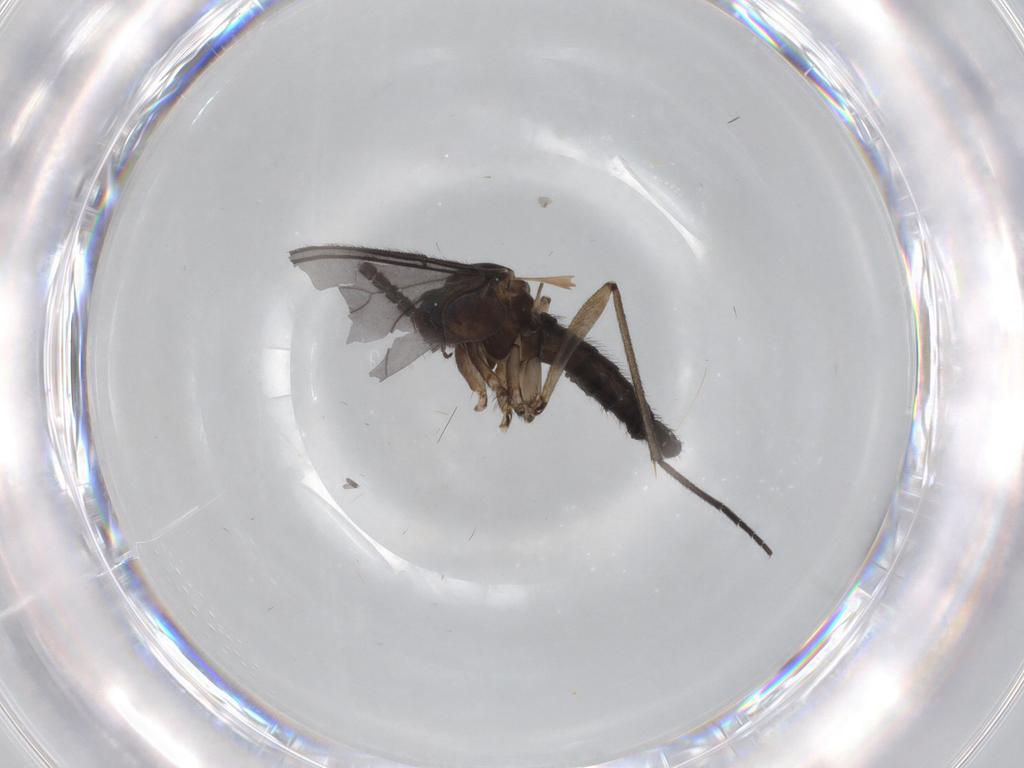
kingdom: Animalia
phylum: Arthropoda
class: Insecta
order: Diptera
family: Sciaridae
